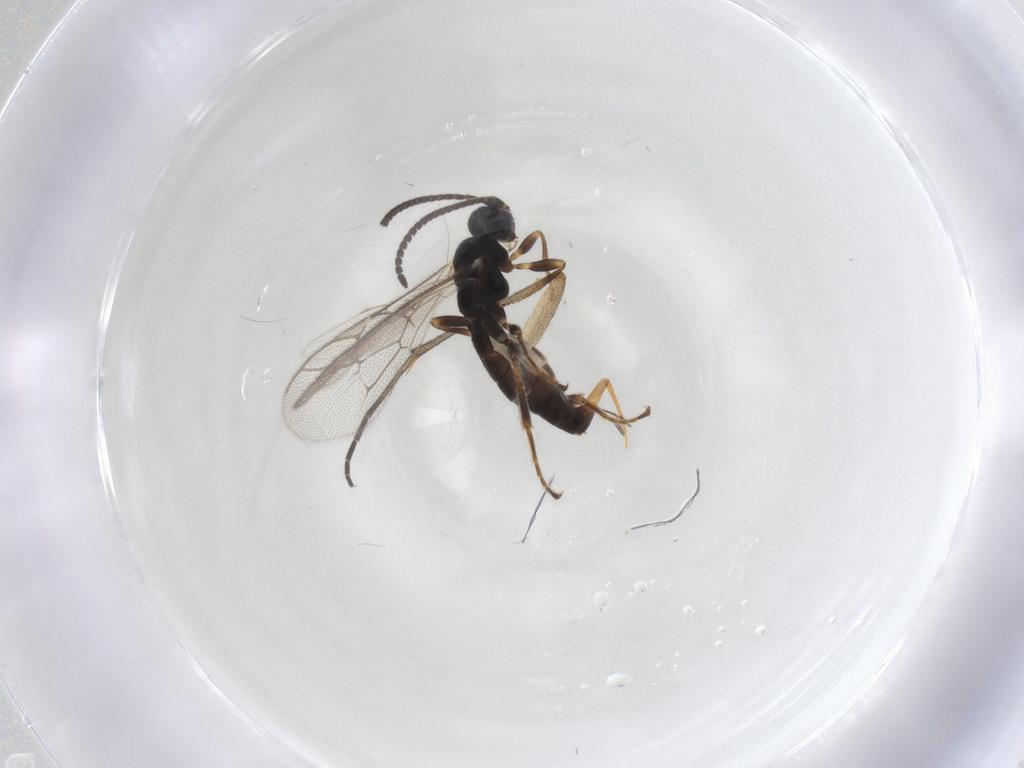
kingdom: Animalia
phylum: Arthropoda
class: Insecta
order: Hymenoptera
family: Ichneumonidae
